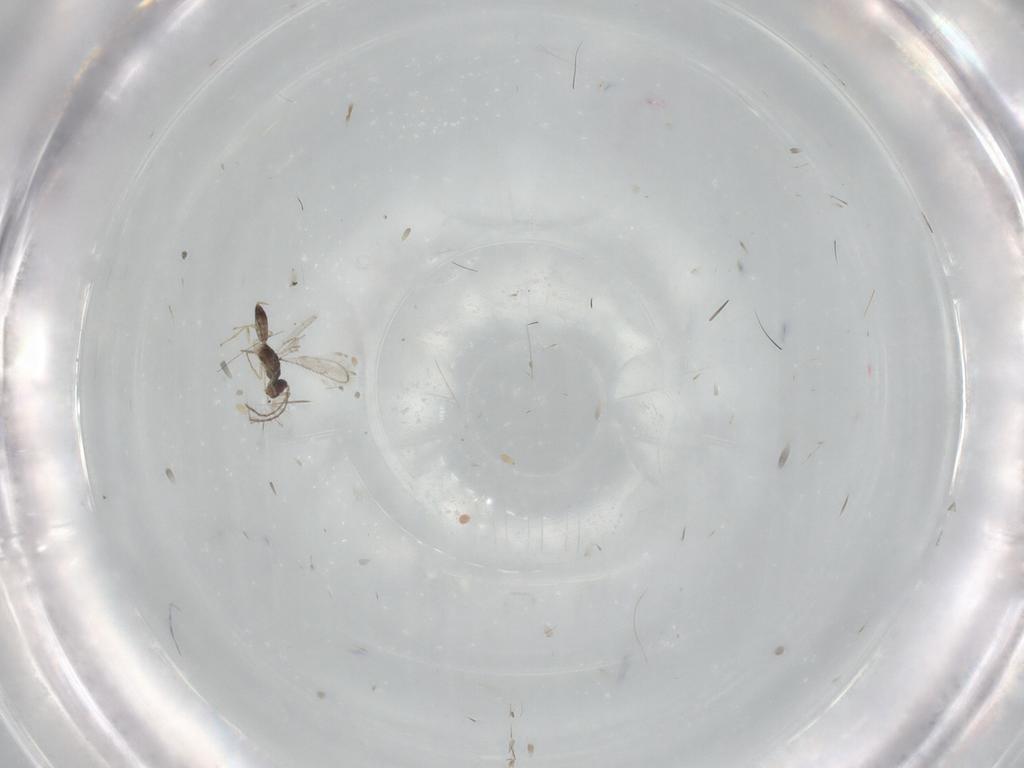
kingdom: Animalia
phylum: Arthropoda
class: Insecta
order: Hymenoptera
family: Pteromalidae
